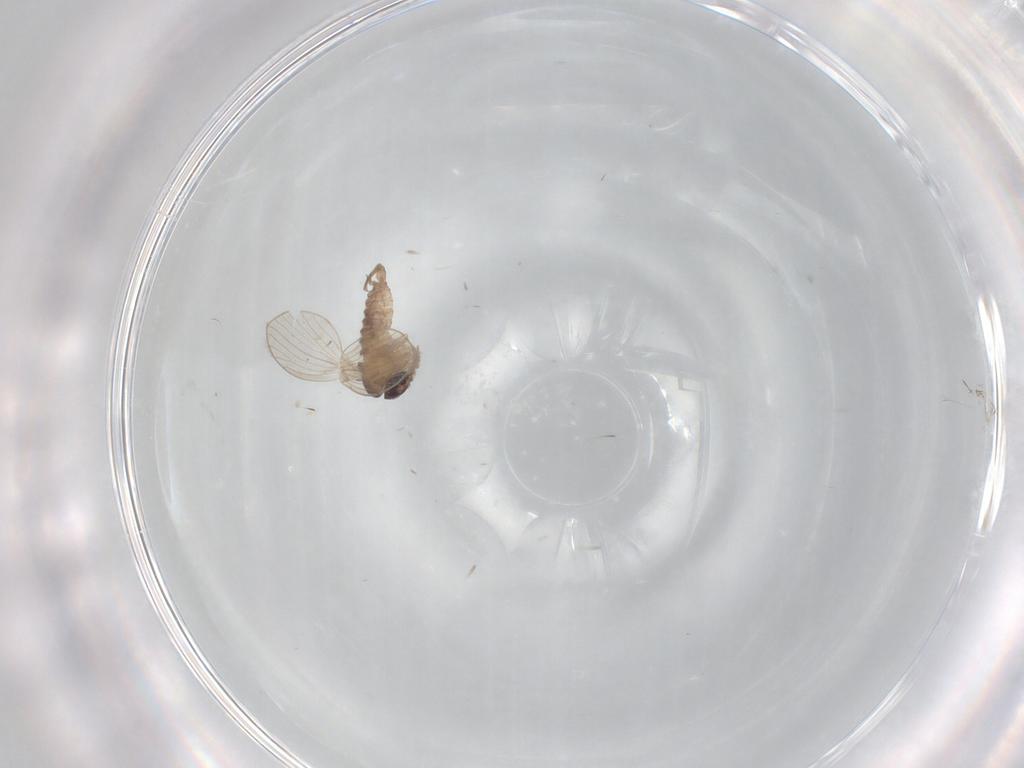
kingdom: Animalia
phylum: Arthropoda
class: Insecta
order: Diptera
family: Psychodidae
